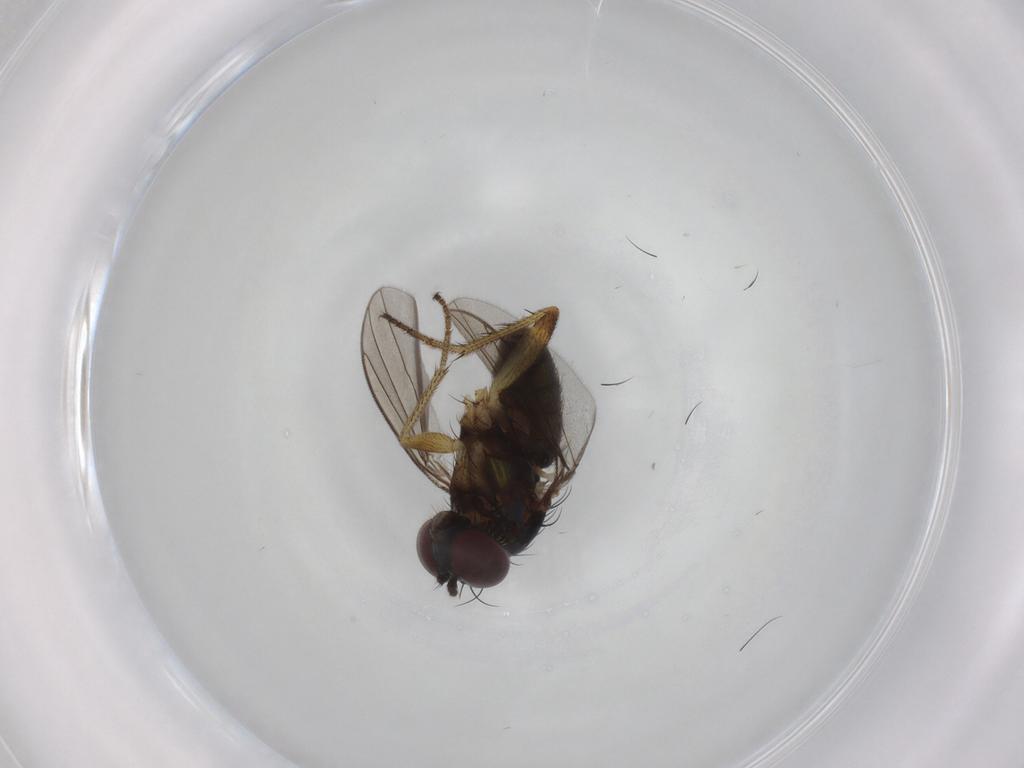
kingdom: Animalia
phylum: Arthropoda
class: Insecta
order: Diptera
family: Dolichopodidae
